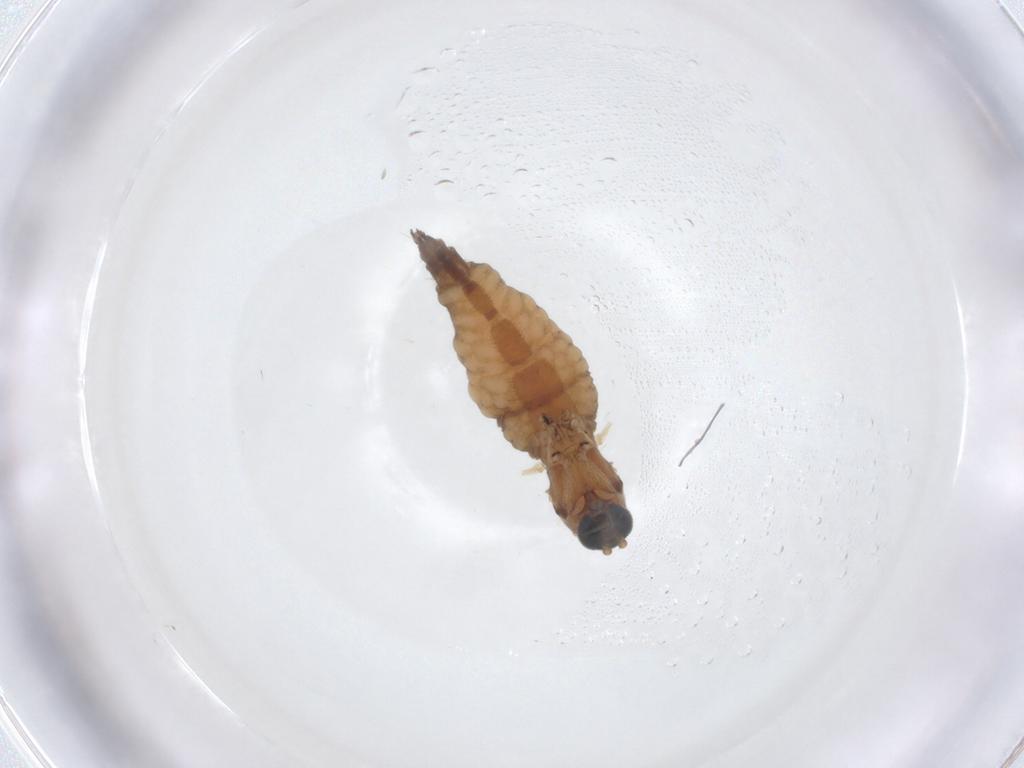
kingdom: Animalia
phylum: Arthropoda
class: Insecta
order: Diptera
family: Sciaridae
